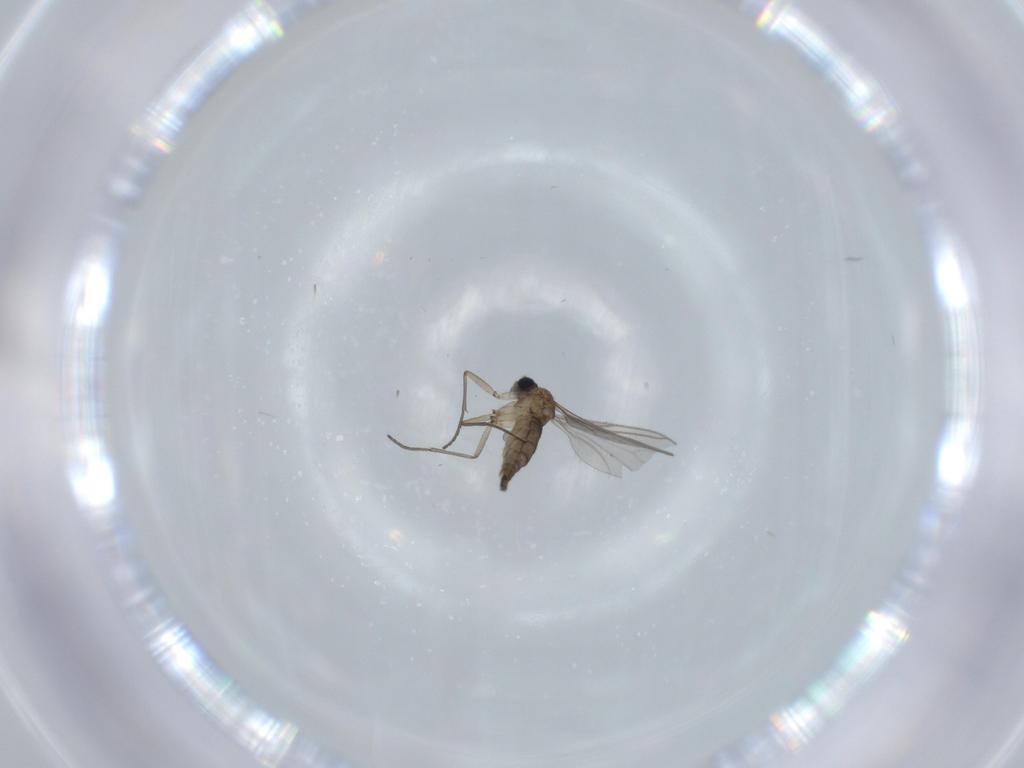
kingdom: Animalia
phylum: Arthropoda
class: Insecta
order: Diptera
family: Sciaridae
